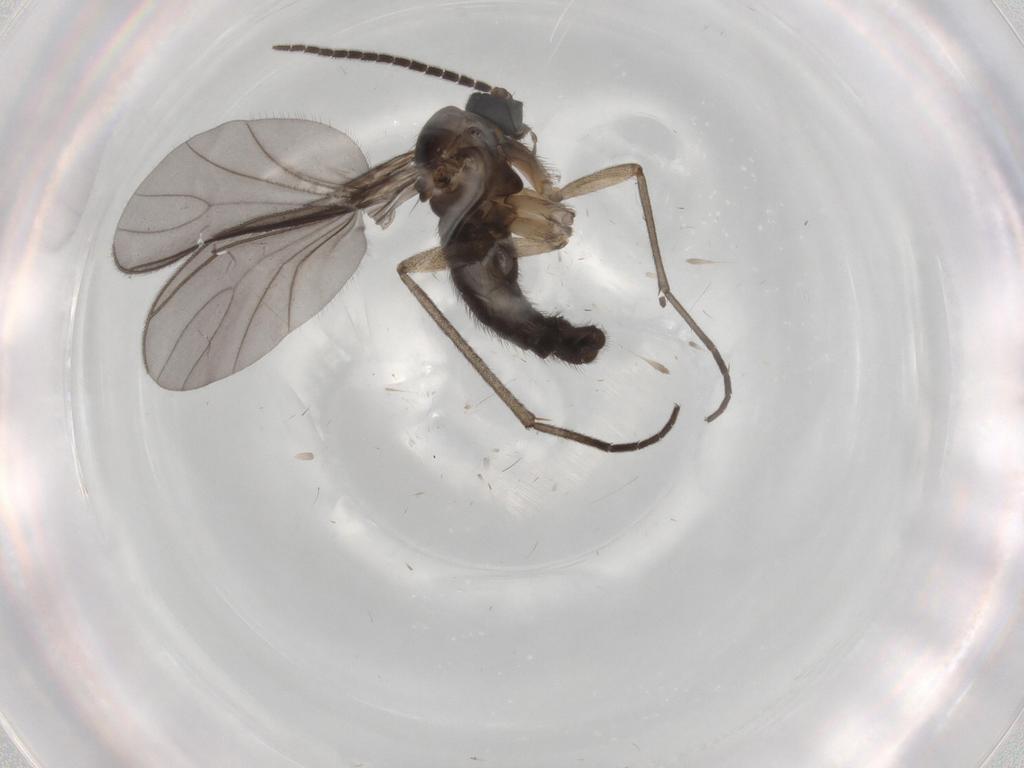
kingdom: Animalia
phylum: Arthropoda
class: Insecta
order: Diptera
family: Sciaridae
